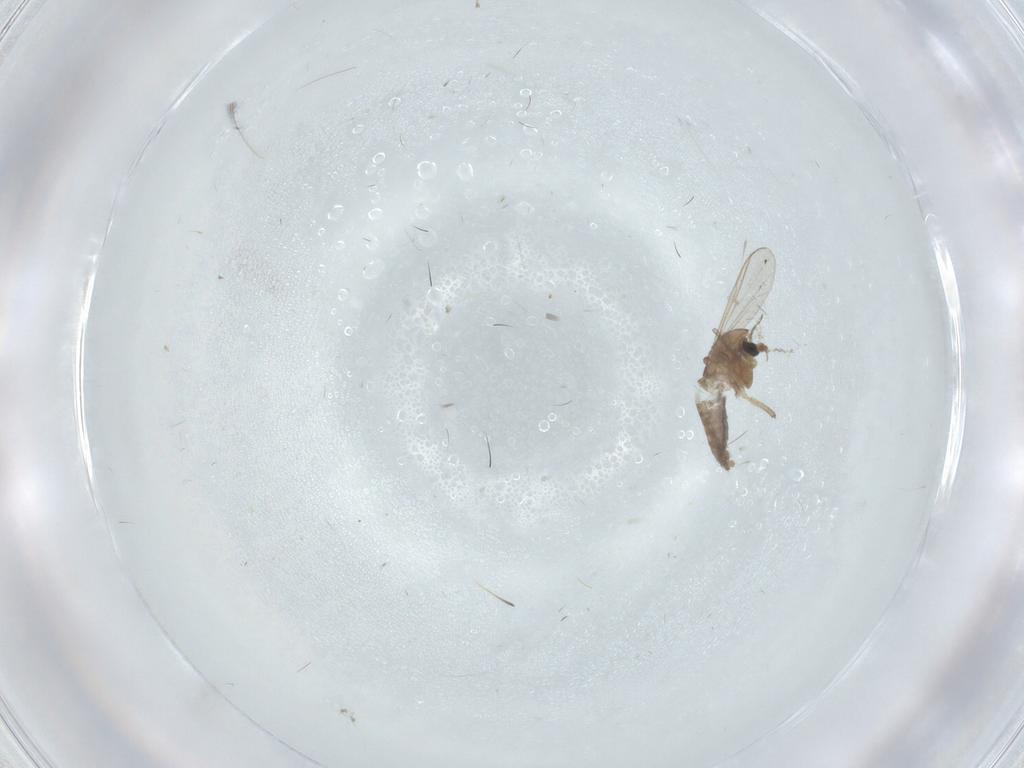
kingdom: Animalia
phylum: Arthropoda
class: Insecta
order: Diptera
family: Chironomidae
